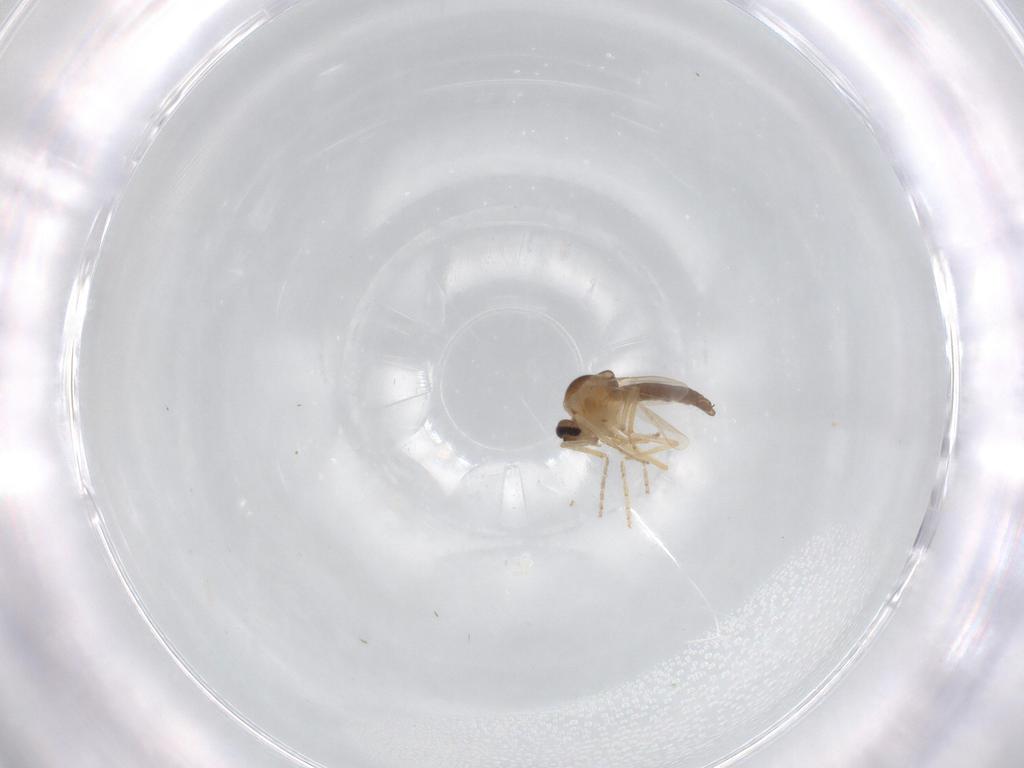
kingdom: Animalia
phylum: Arthropoda
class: Insecta
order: Diptera
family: Ceratopogonidae
